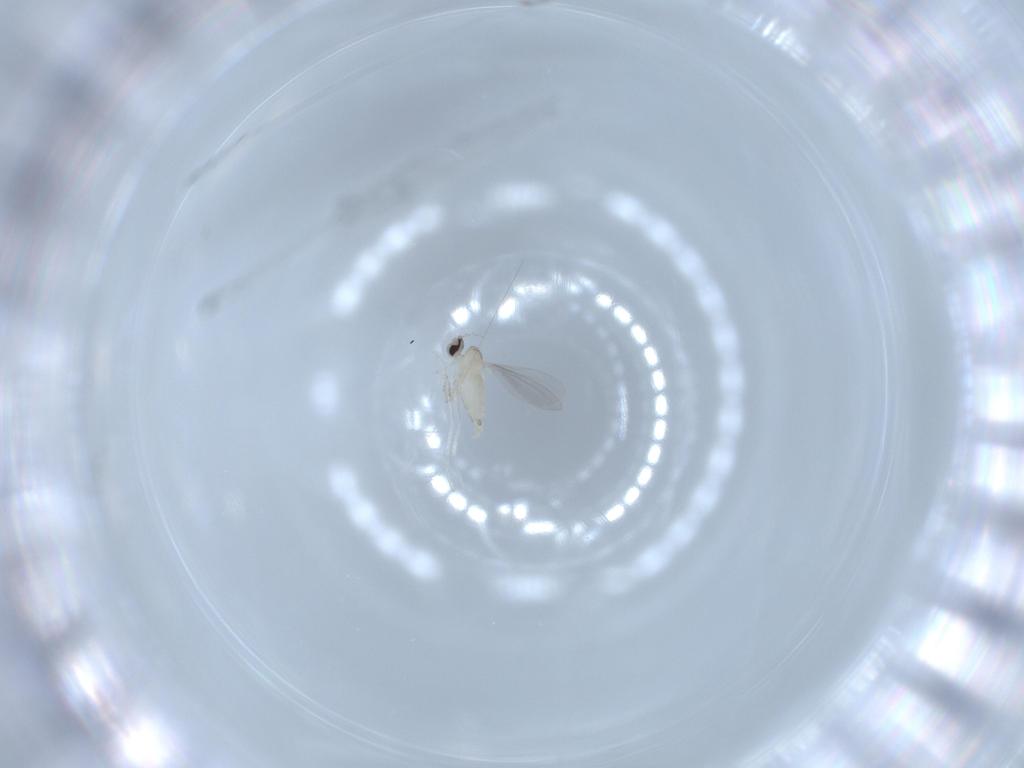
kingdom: Animalia
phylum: Arthropoda
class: Insecta
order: Diptera
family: Cecidomyiidae
